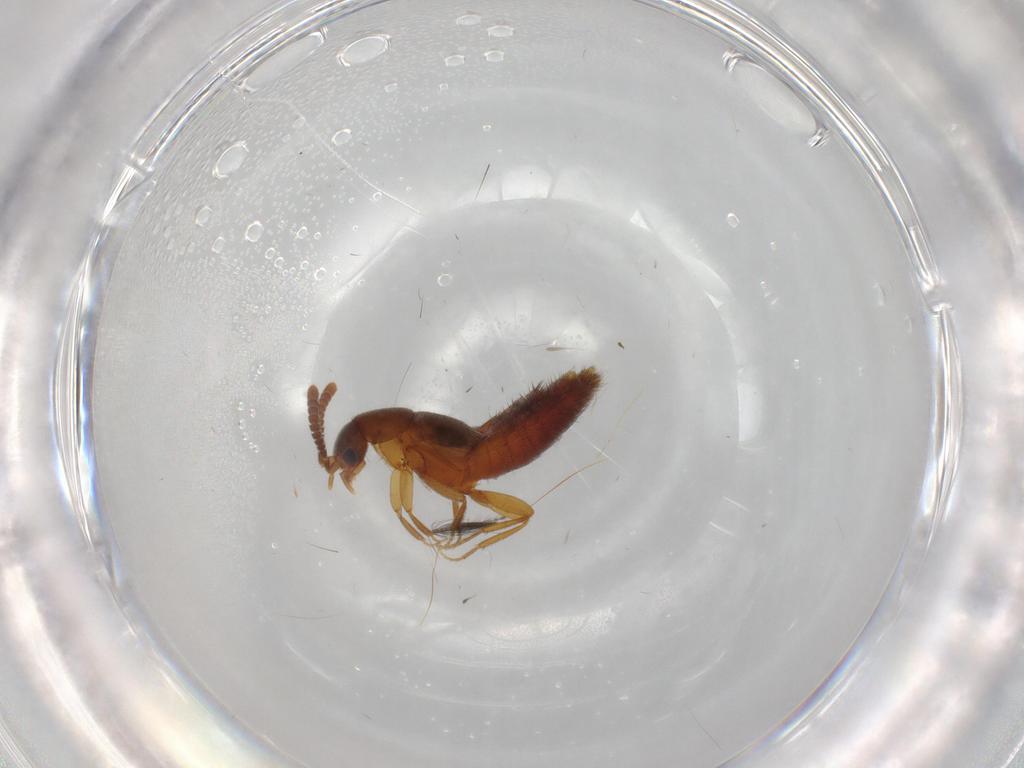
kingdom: Animalia
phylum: Arthropoda
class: Insecta
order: Coleoptera
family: Staphylinidae
